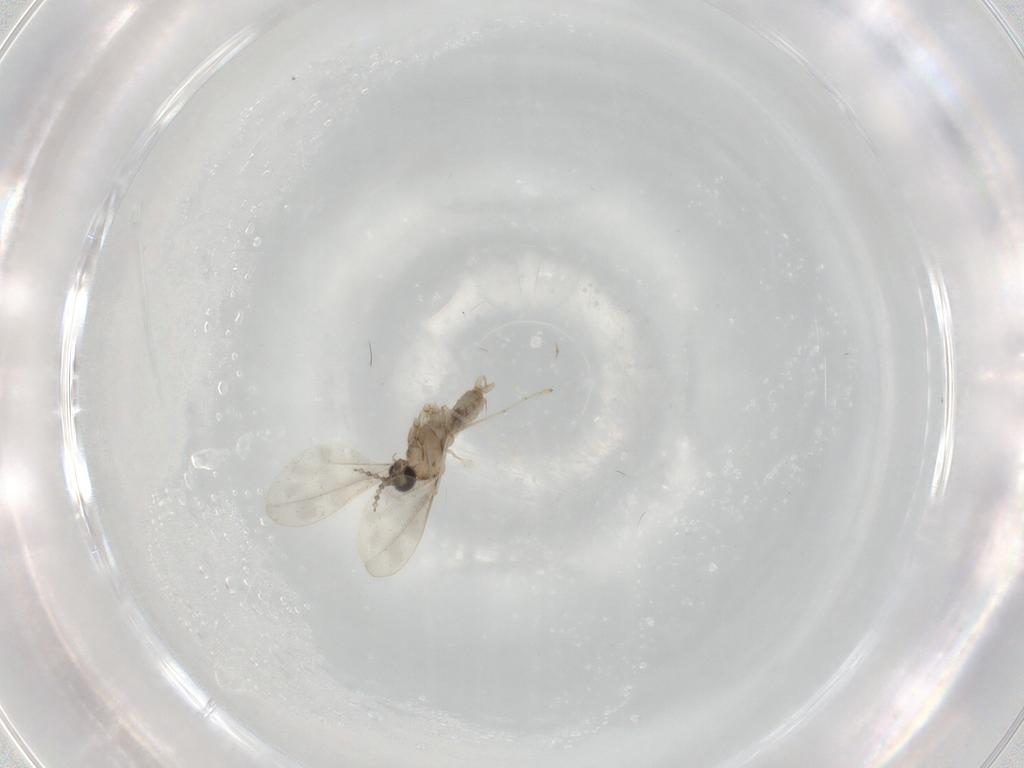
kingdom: Animalia
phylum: Arthropoda
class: Insecta
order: Diptera
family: Cecidomyiidae
